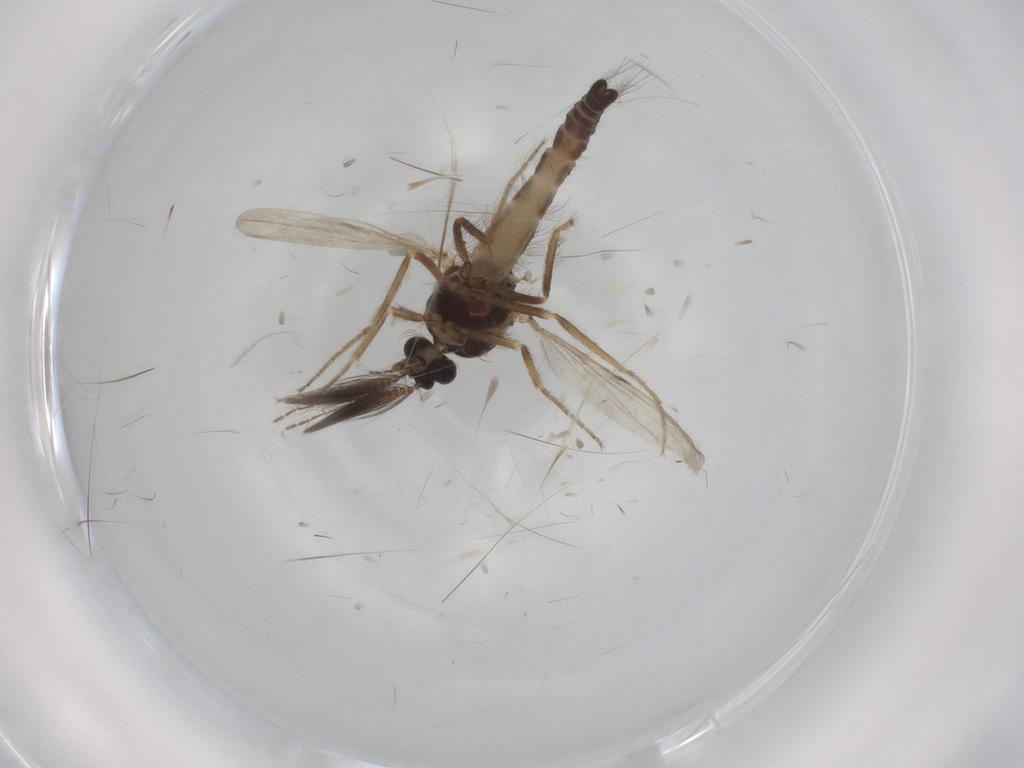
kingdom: Animalia
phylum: Arthropoda
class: Insecta
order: Diptera
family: Ceratopogonidae
